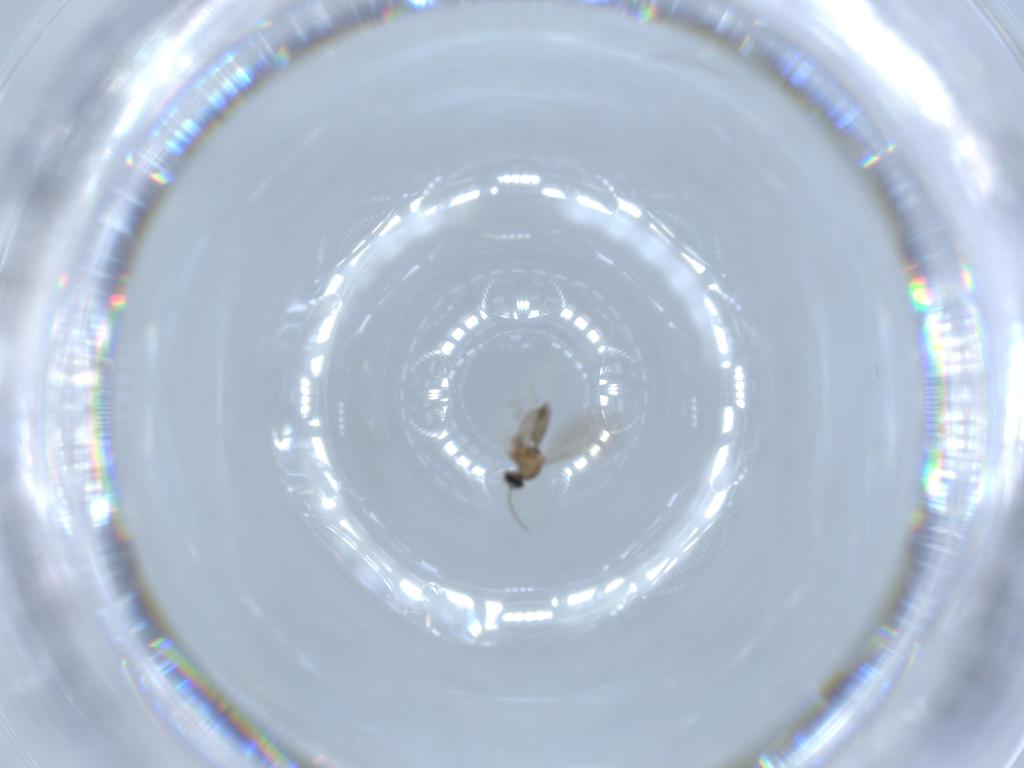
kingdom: Animalia
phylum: Arthropoda
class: Insecta
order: Diptera
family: Cecidomyiidae
